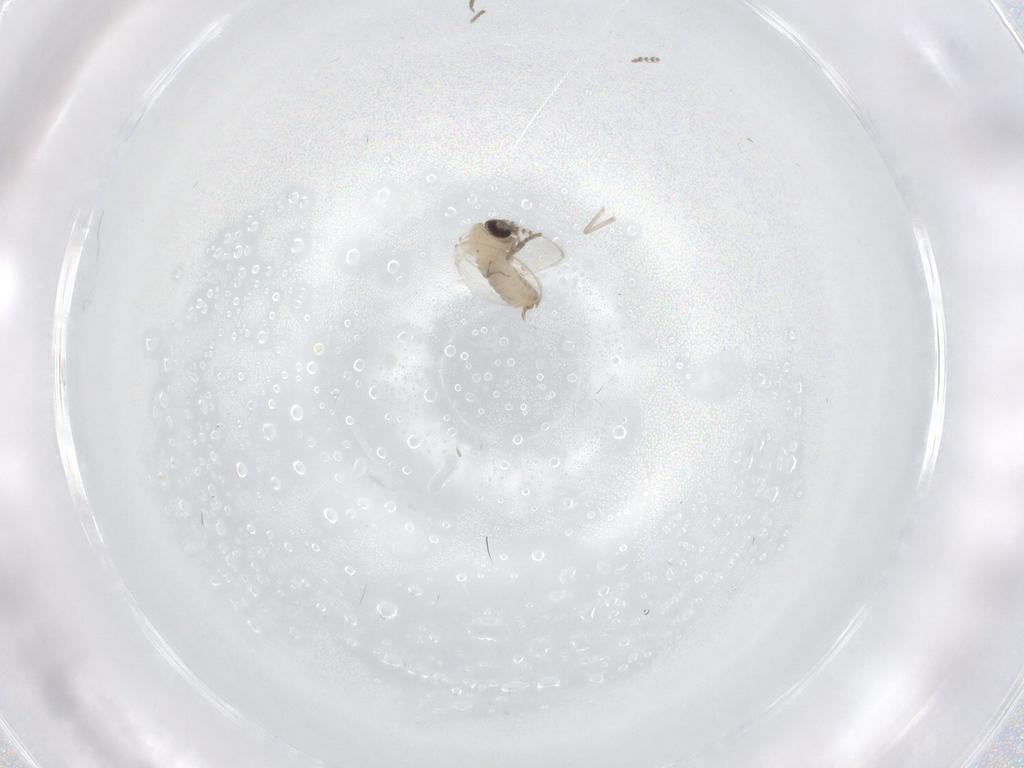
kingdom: Animalia
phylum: Arthropoda
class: Insecta
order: Diptera
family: Psychodidae
